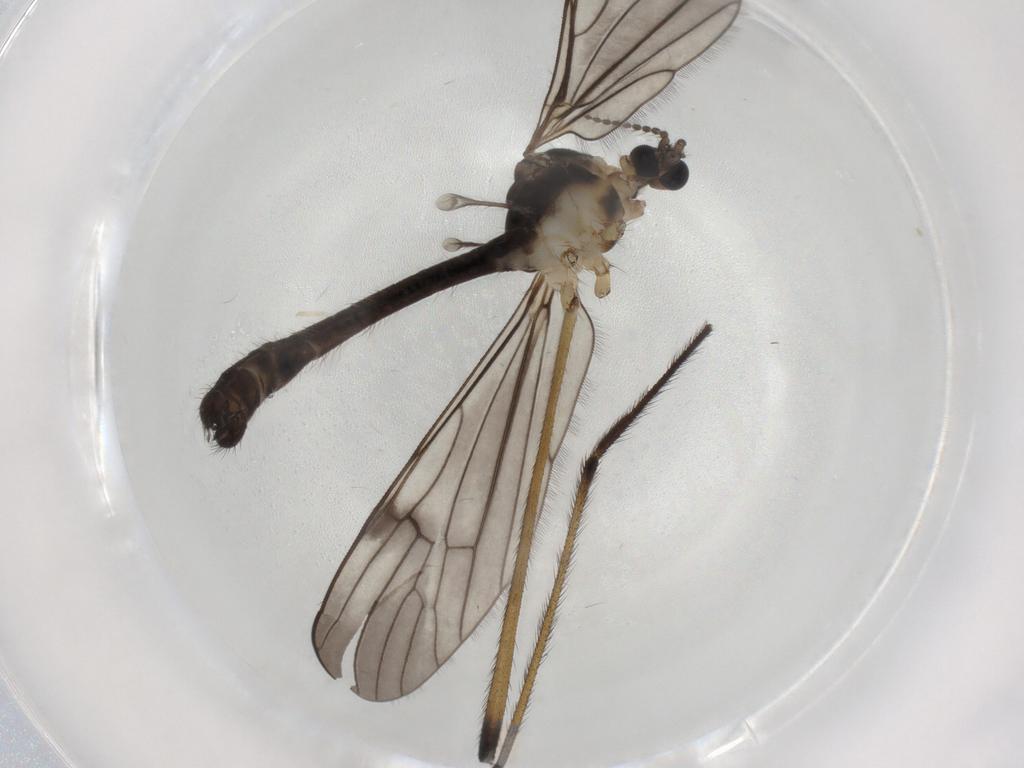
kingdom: Animalia
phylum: Arthropoda
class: Insecta
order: Diptera
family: Cecidomyiidae
